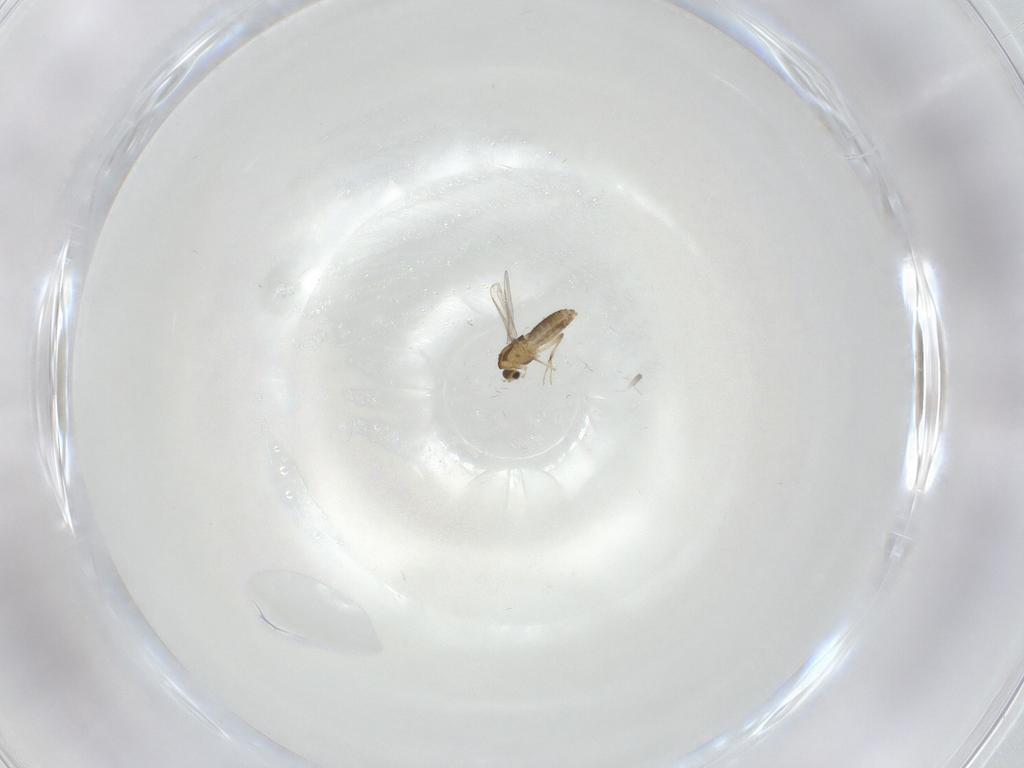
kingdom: Animalia
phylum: Arthropoda
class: Insecta
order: Diptera
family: Chironomidae
